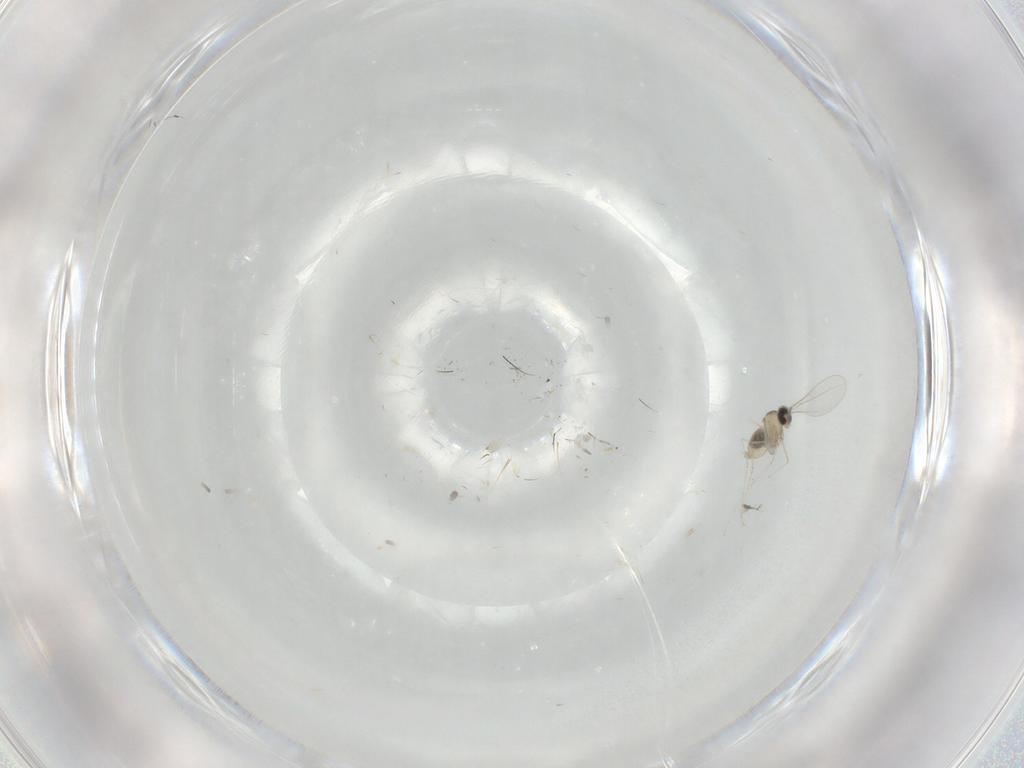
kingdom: Animalia
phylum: Arthropoda
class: Insecta
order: Diptera
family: Cecidomyiidae
